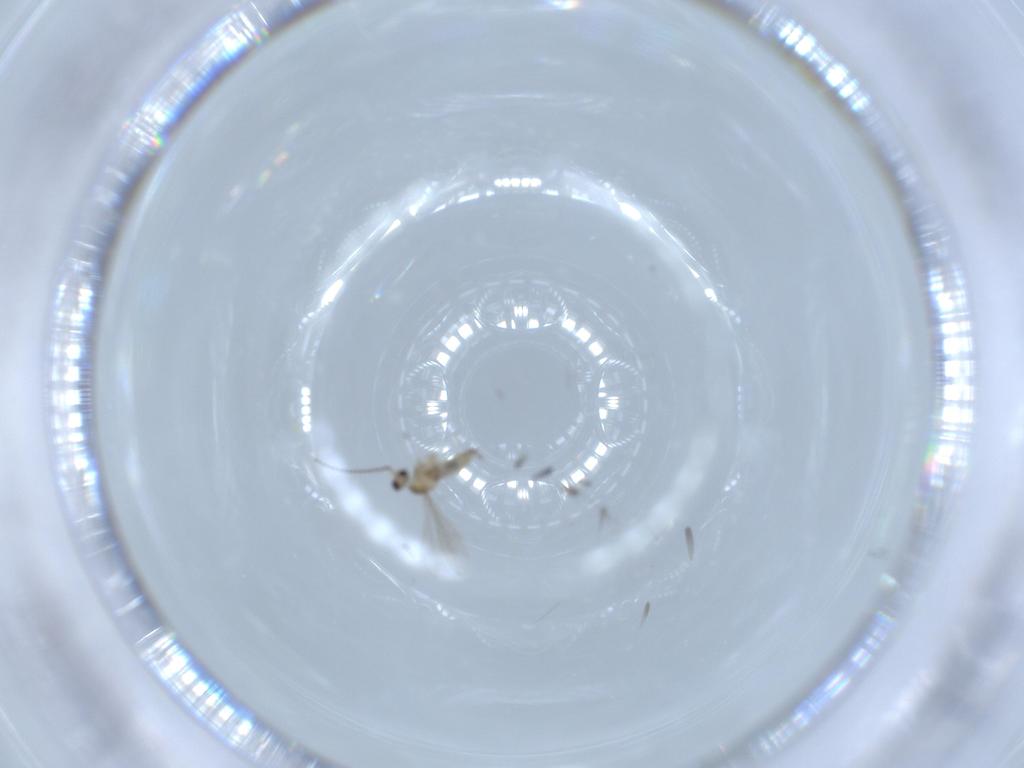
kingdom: Animalia
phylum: Arthropoda
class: Insecta
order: Diptera
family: Cecidomyiidae
